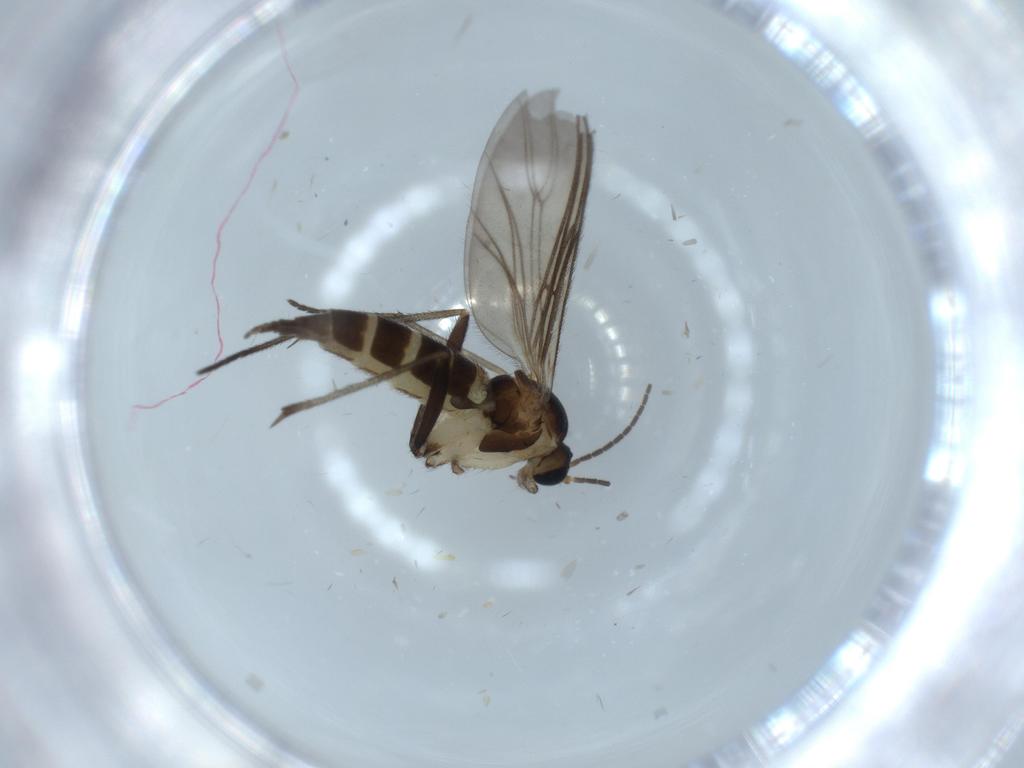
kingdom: Animalia
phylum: Arthropoda
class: Insecta
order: Diptera
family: Sciaridae
